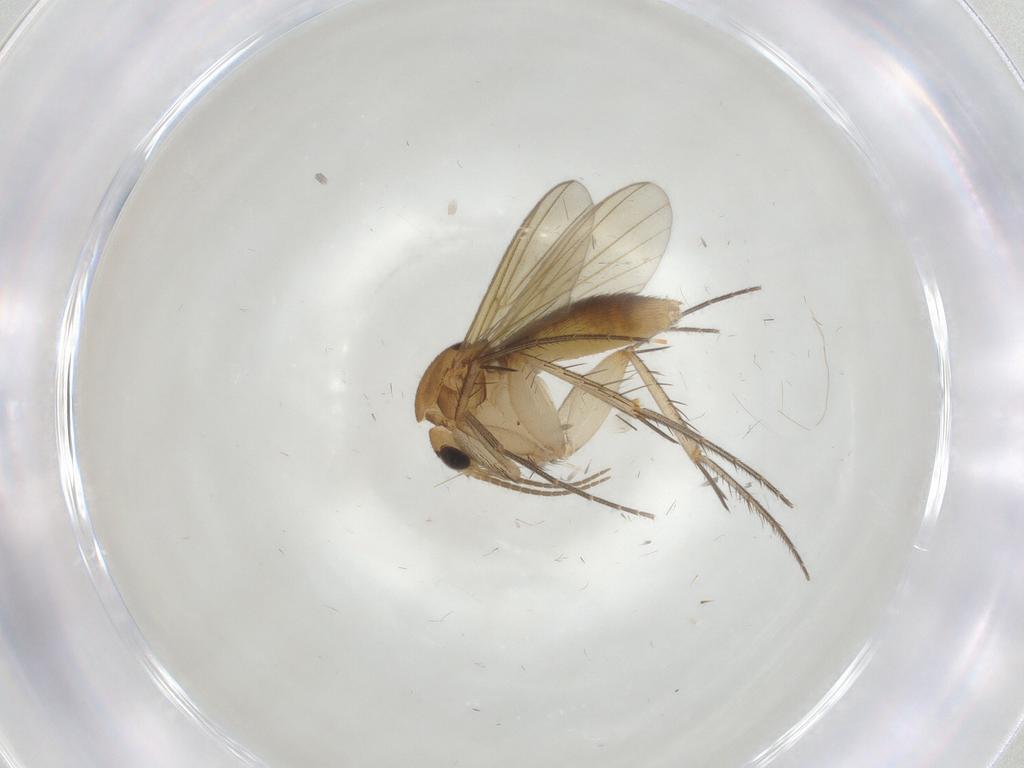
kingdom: Animalia
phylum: Arthropoda
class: Insecta
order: Diptera
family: Mycetophilidae
